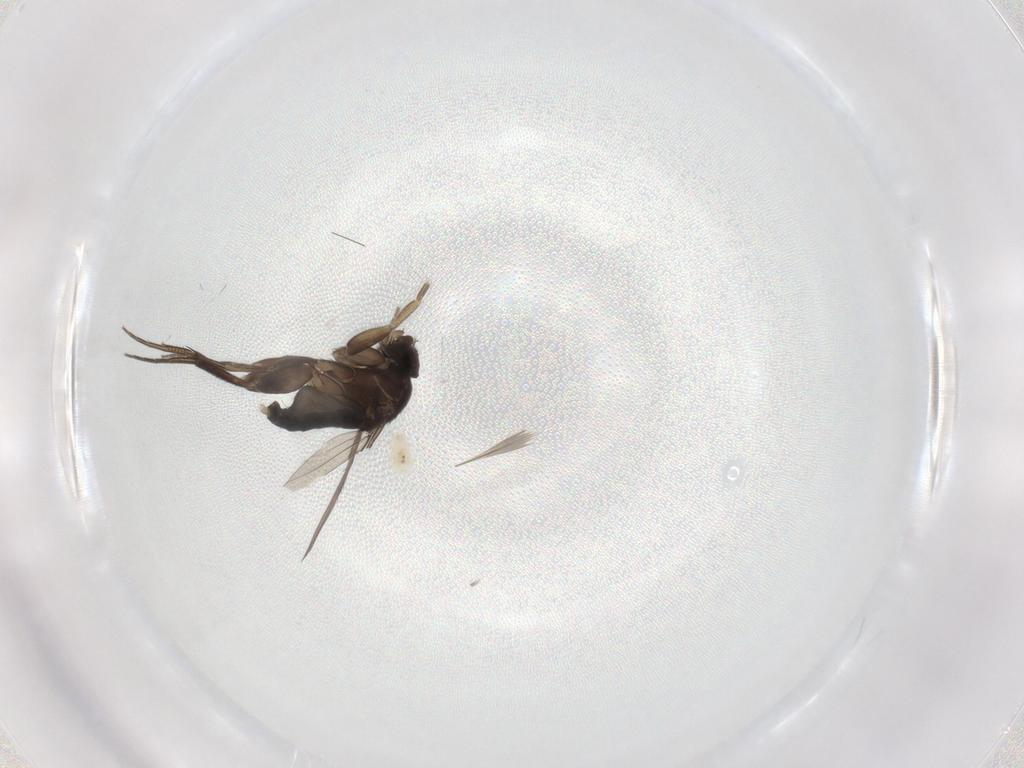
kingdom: Animalia
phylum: Arthropoda
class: Insecta
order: Diptera
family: Phoridae
